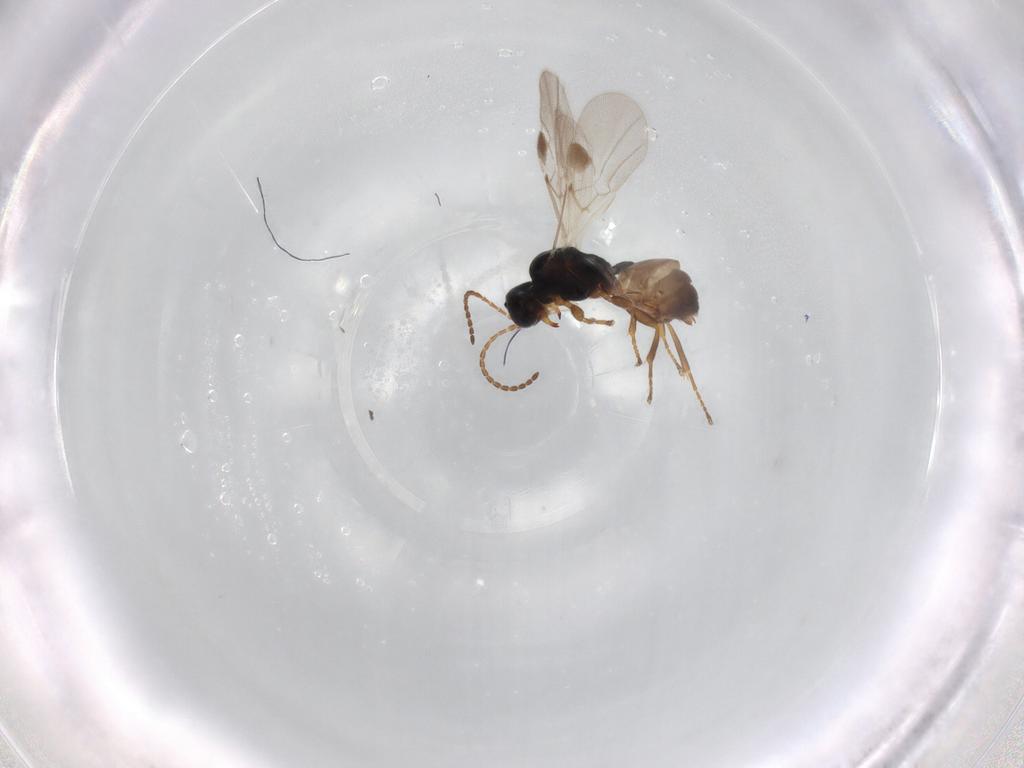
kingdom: Animalia
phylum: Arthropoda
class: Insecta
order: Hymenoptera
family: Braconidae
